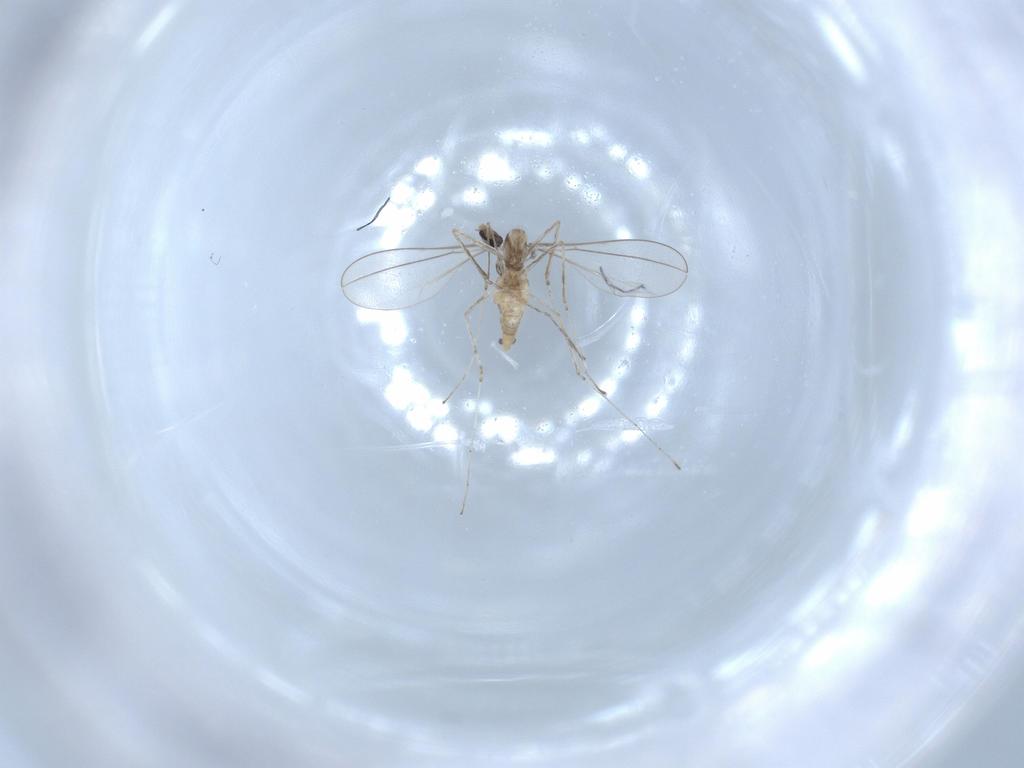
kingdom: Animalia
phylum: Arthropoda
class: Insecta
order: Diptera
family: Cecidomyiidae
